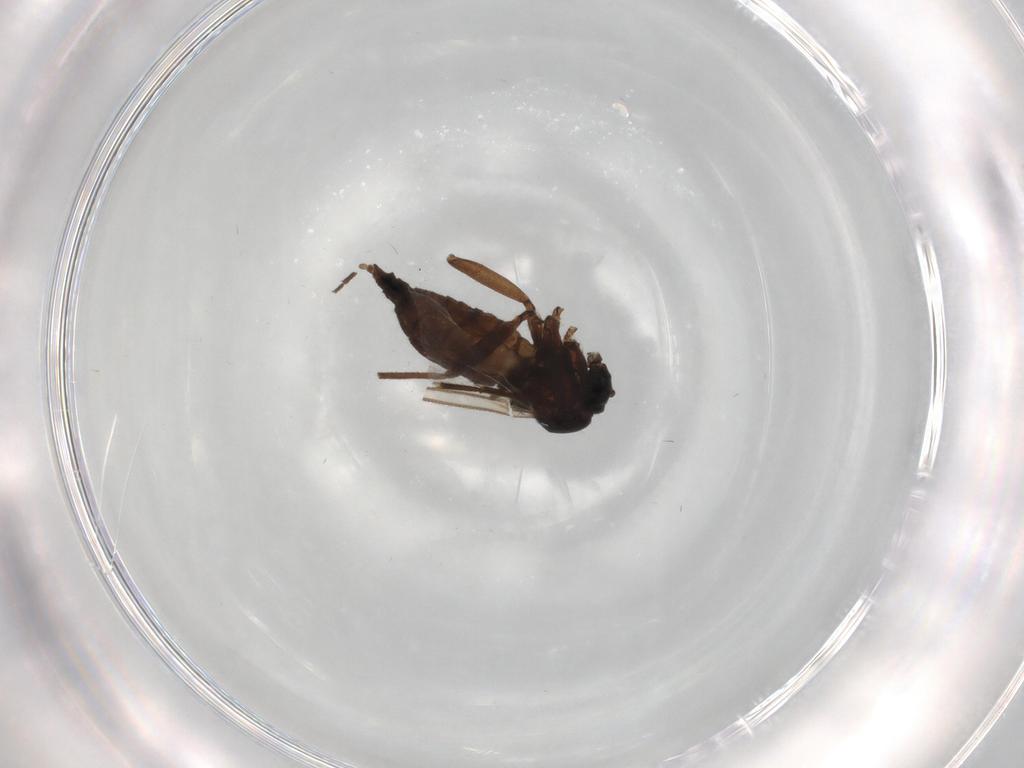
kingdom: Animalia
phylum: Arthropoda
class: Insecta
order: Diptera
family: Sciaridae
